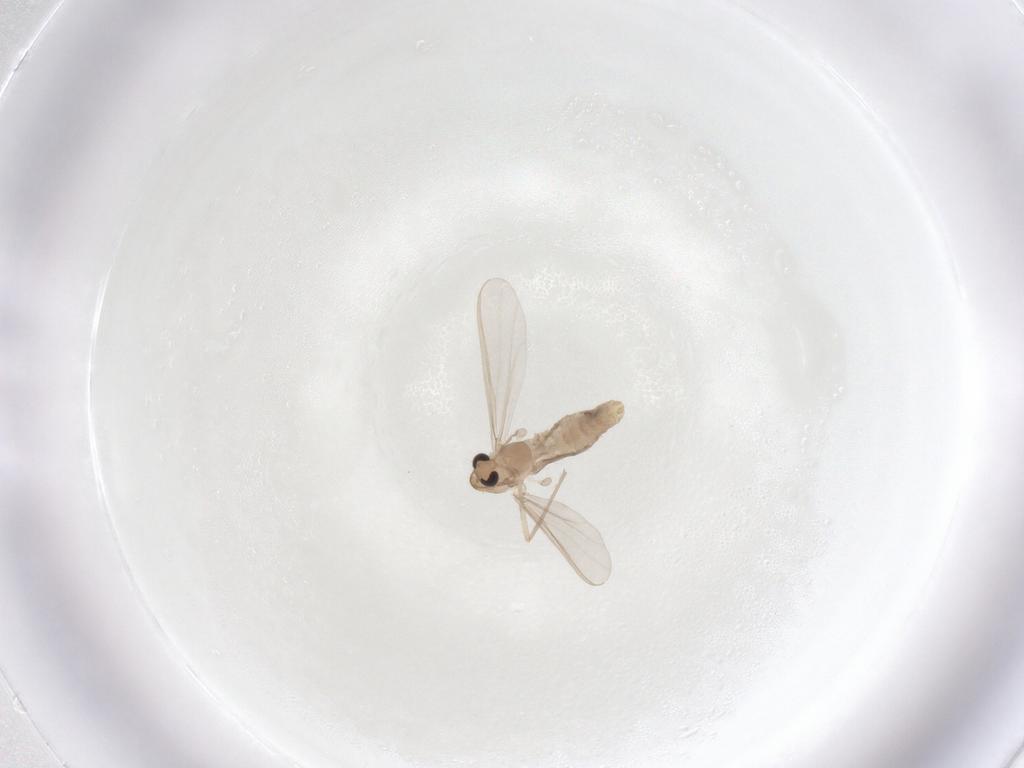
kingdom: Animalia
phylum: Arthropoda
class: Insecta
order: Diptera
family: Chironomidae
